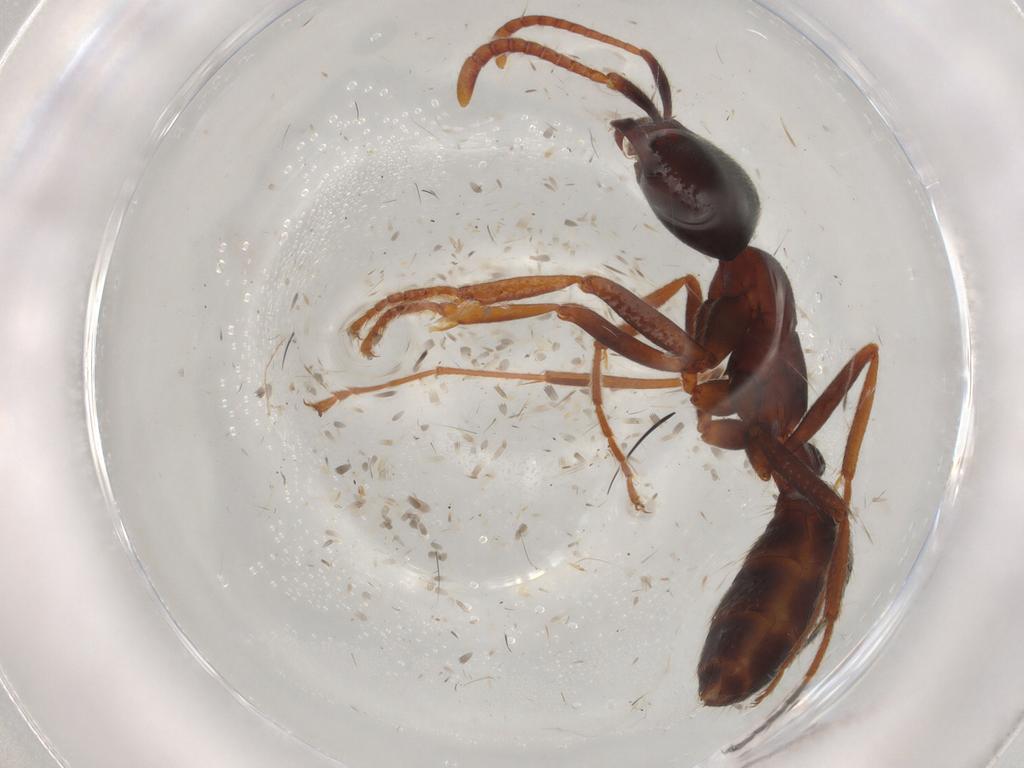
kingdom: Animalia
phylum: Arthropoda
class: Insecta
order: Hymenoptera
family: Formicidae
